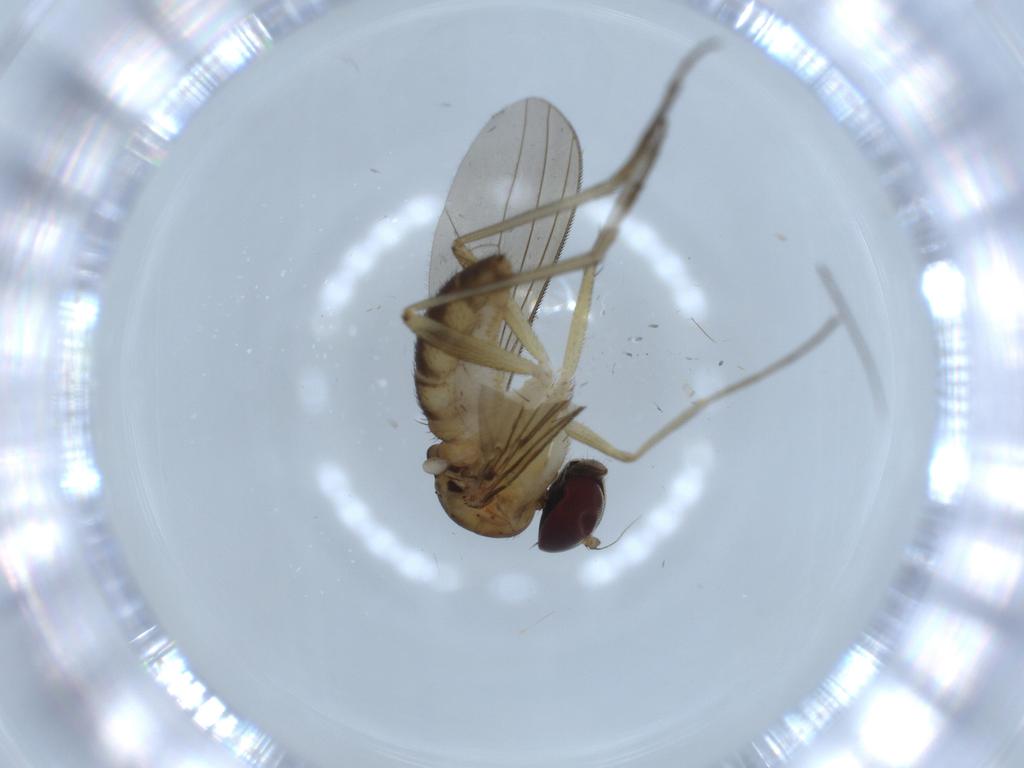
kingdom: Animalia
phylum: Arthropoda
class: Insecta
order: Diptera
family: Dolichopodidae
